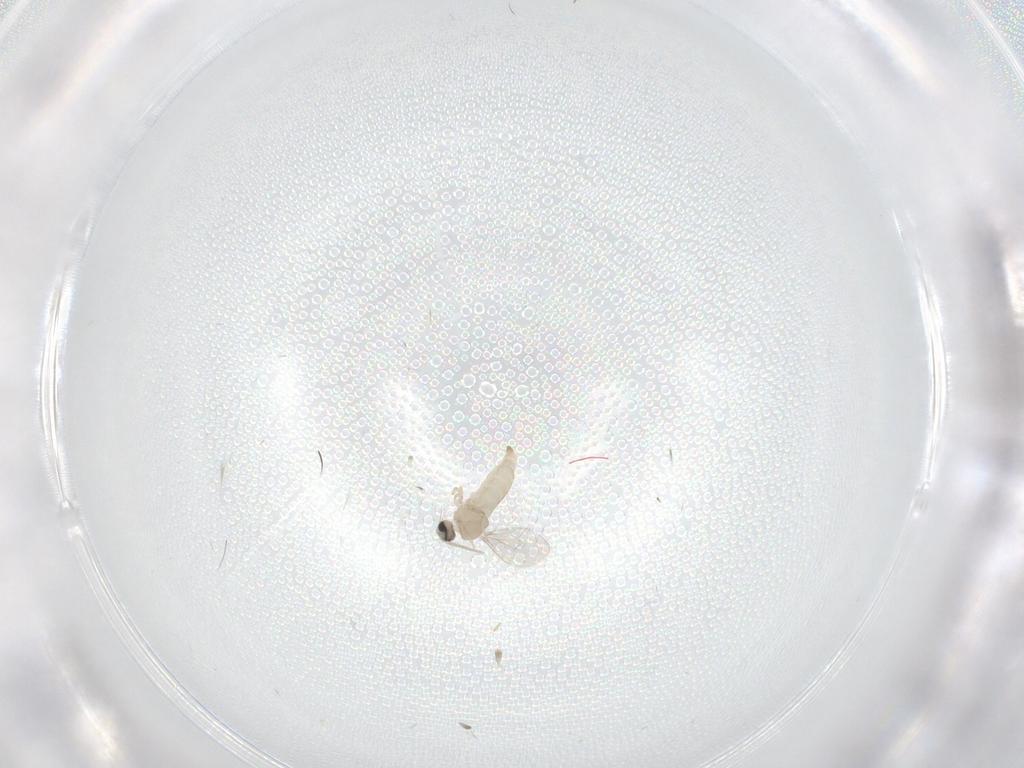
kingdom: Animalia
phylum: Arthropoda
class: Insecta
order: Diptera
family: Cecidomyiidae
